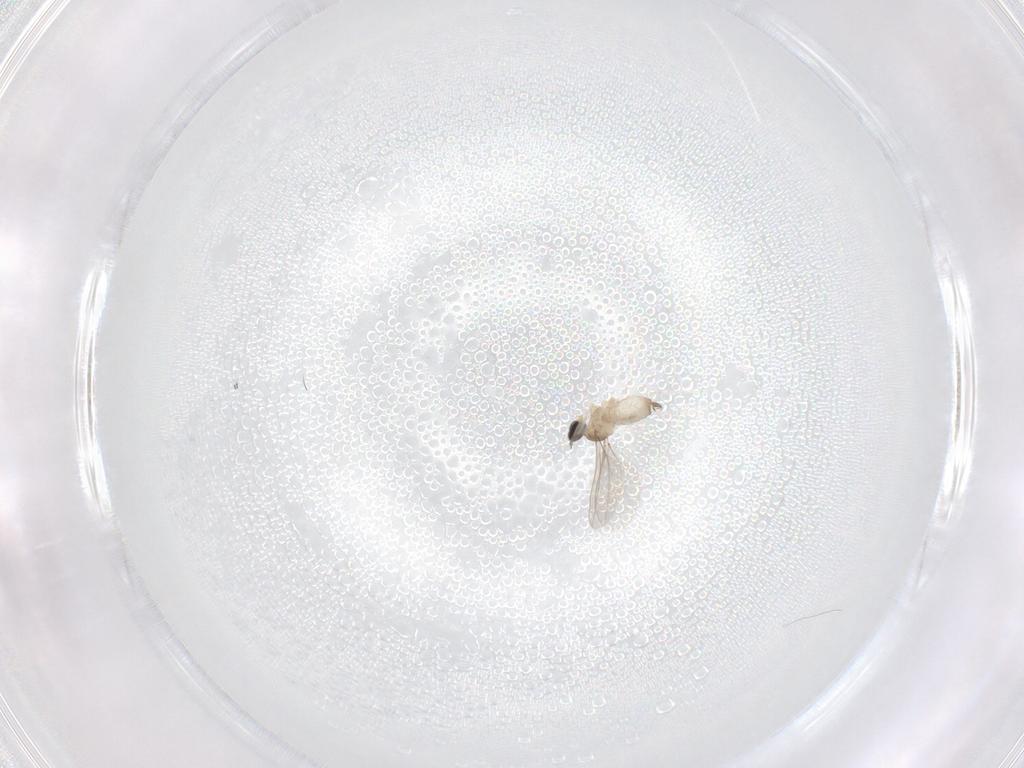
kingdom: Animalia
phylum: Arthropoda
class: Insecta
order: Diptera
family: Cecidomyiidae
